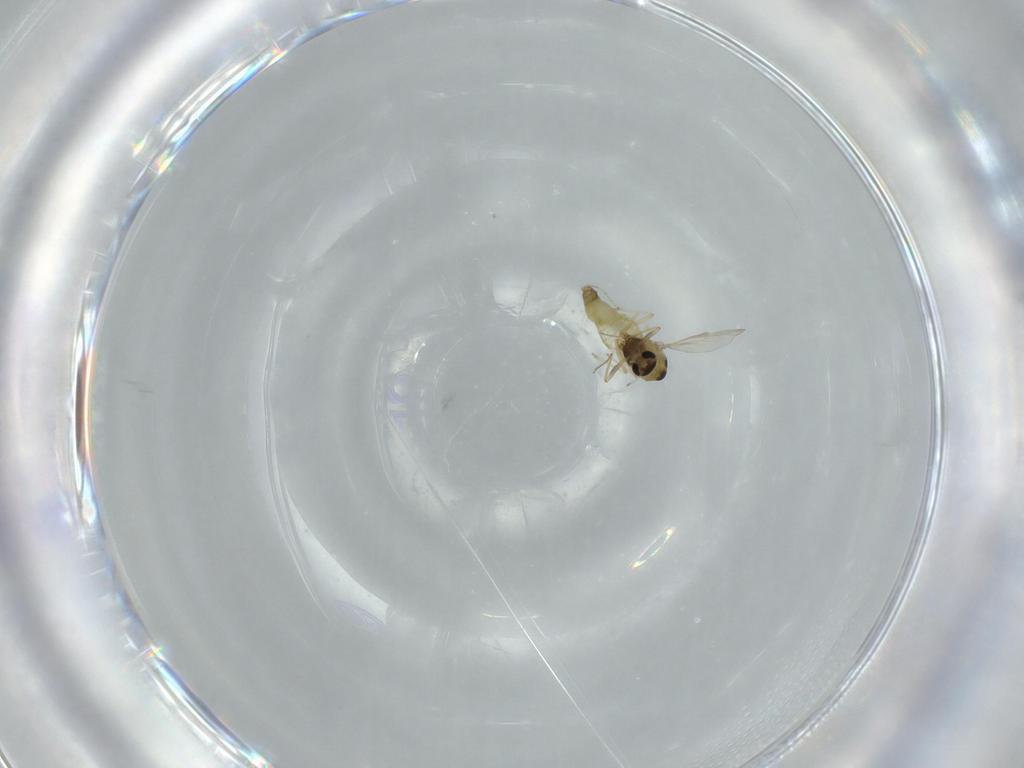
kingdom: Animalia
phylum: Arthropoda
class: Insecta
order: Diptera
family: Chironomidae
